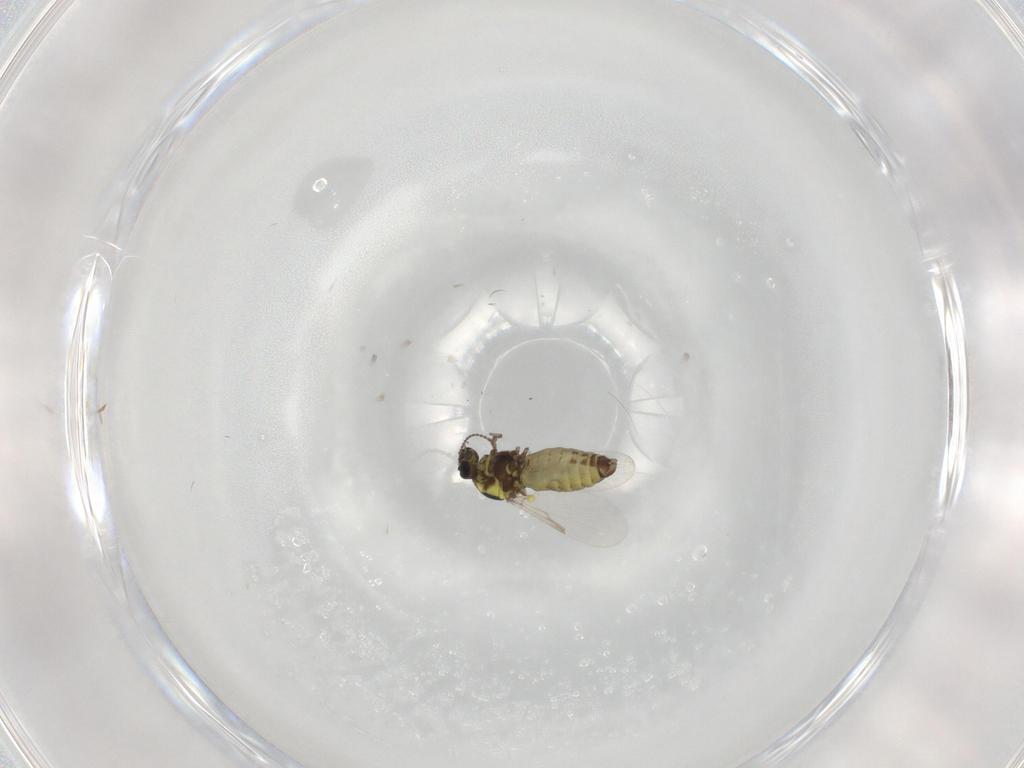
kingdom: Animalia
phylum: Arthropoda
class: Insecta
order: Diptera
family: Ceratopogonidae
